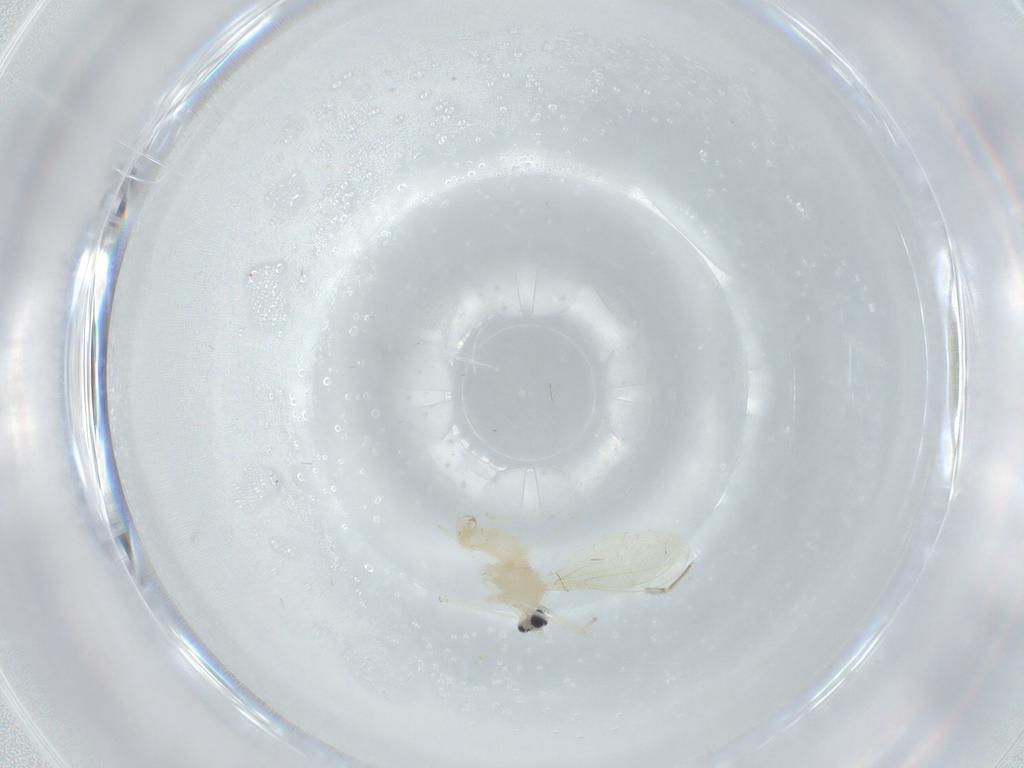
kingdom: Animalia
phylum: Arthropoda
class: Insecta
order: Diptera
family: Cecidomyiidae
